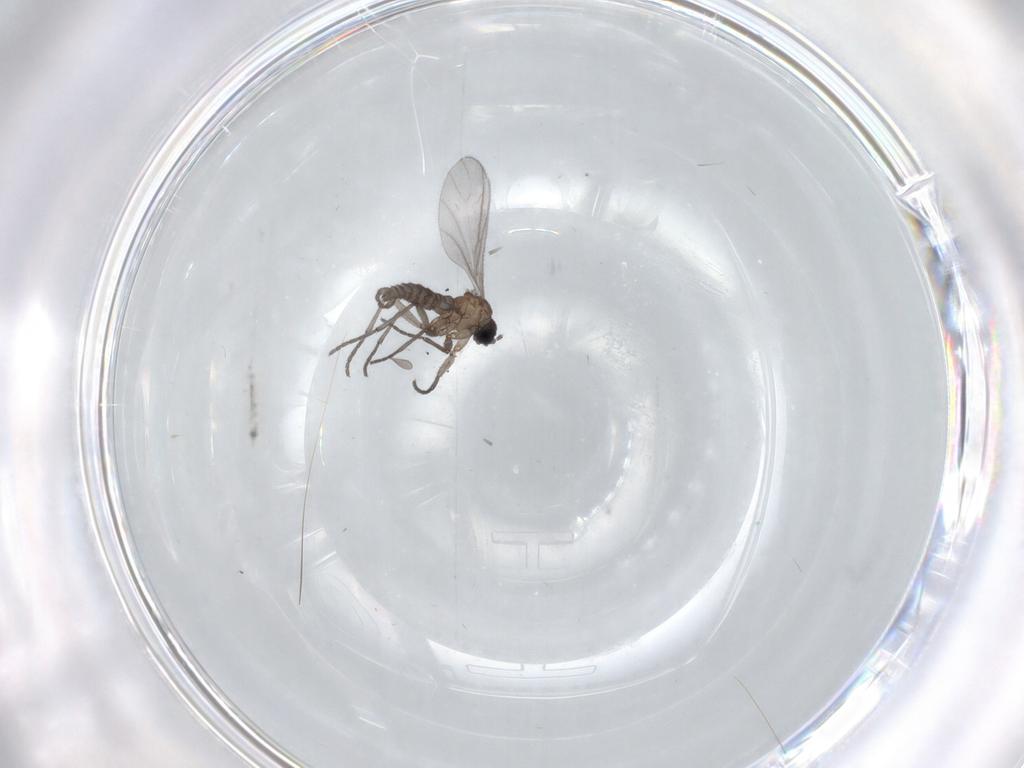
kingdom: Animalia
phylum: Arthropoda
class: Insecta
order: Diptera
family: Sciaridae
